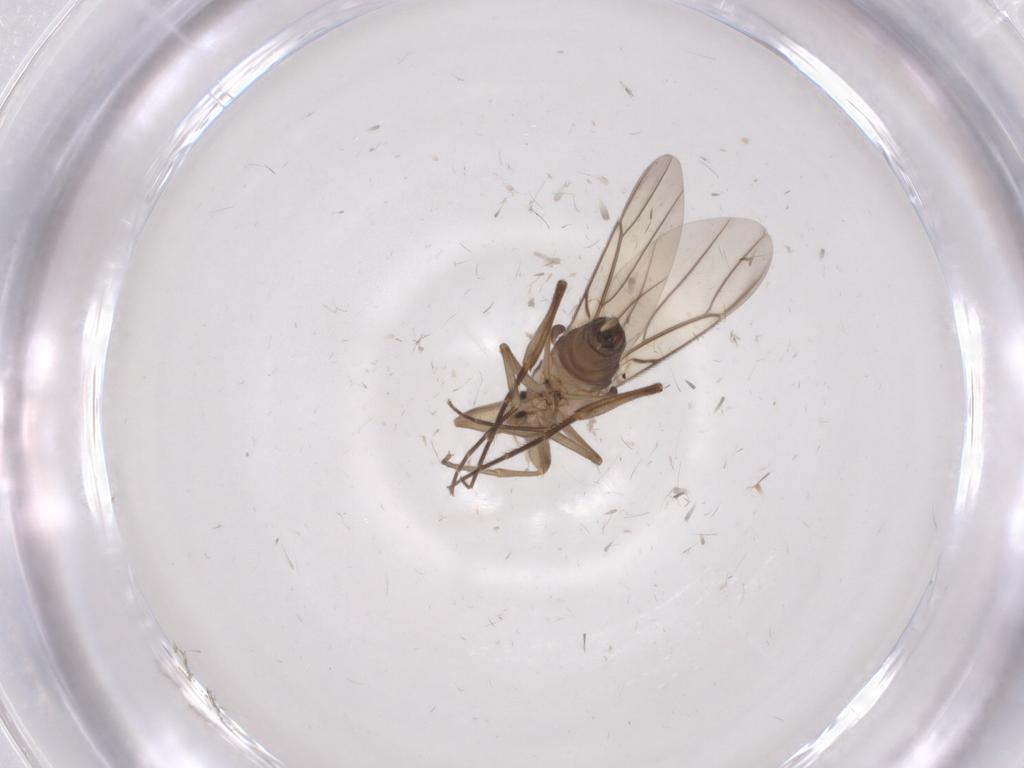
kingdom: Animalia
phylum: Arthropoda
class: Insecta
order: Diptera
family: Phoridae
